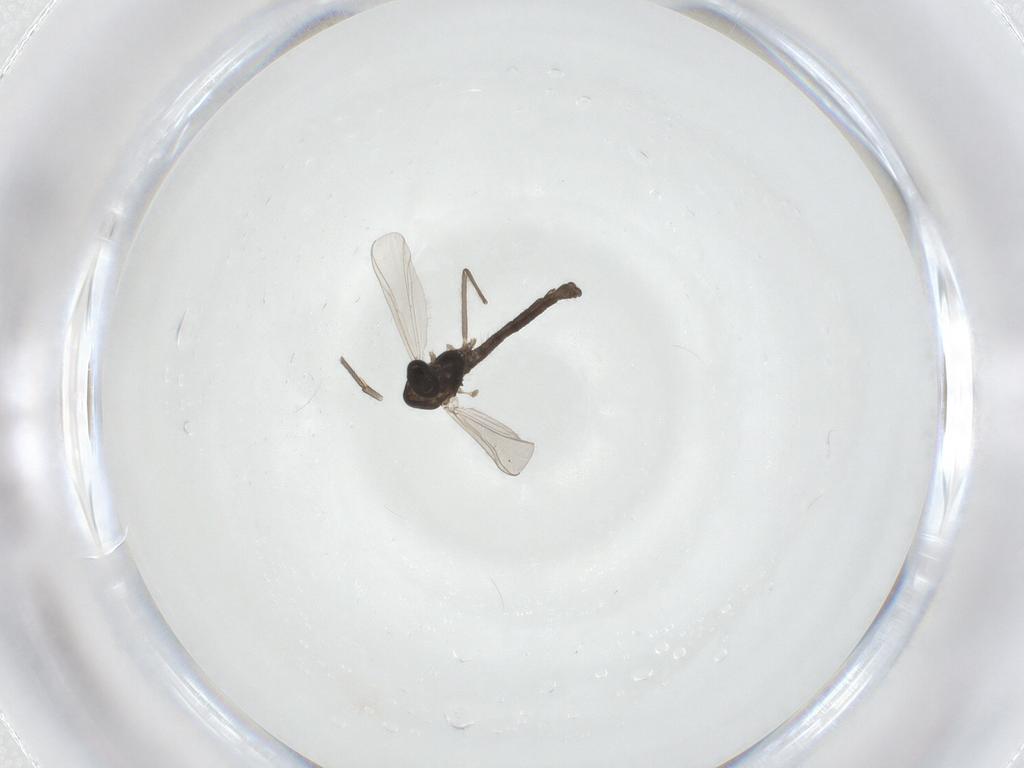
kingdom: Animalia
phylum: Arthropoda
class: Insecta
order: Diptera
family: Chironomidae
